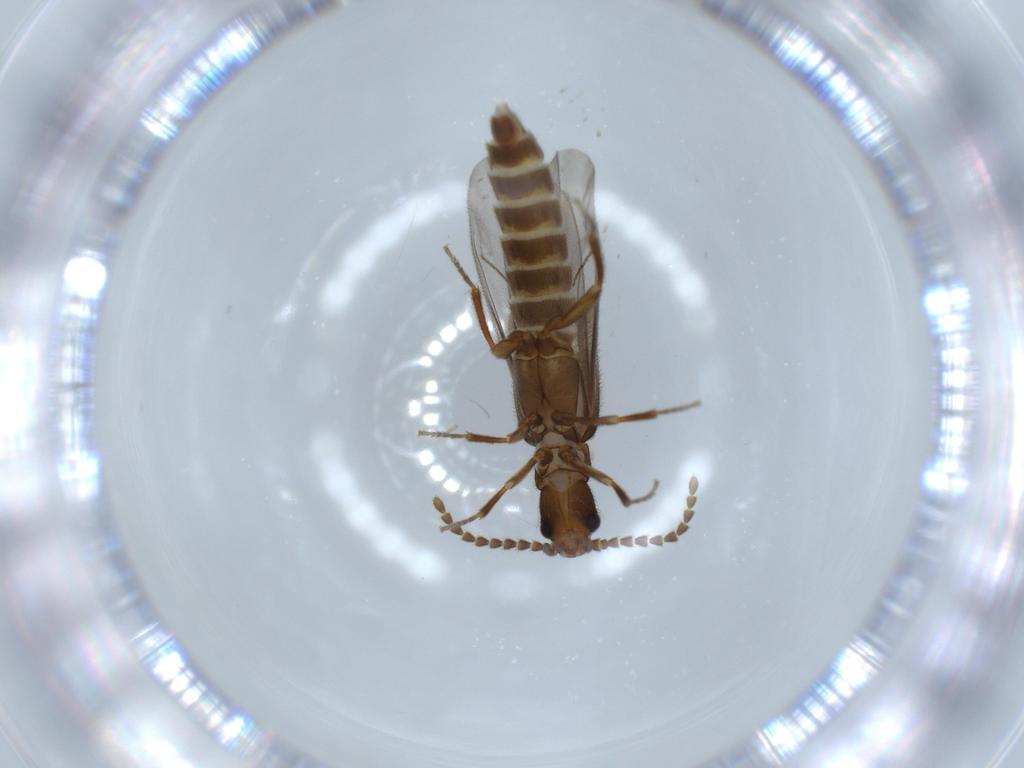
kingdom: Animalia
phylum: Arthropoda
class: Insecta
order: Coleoptera
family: Omethidae
